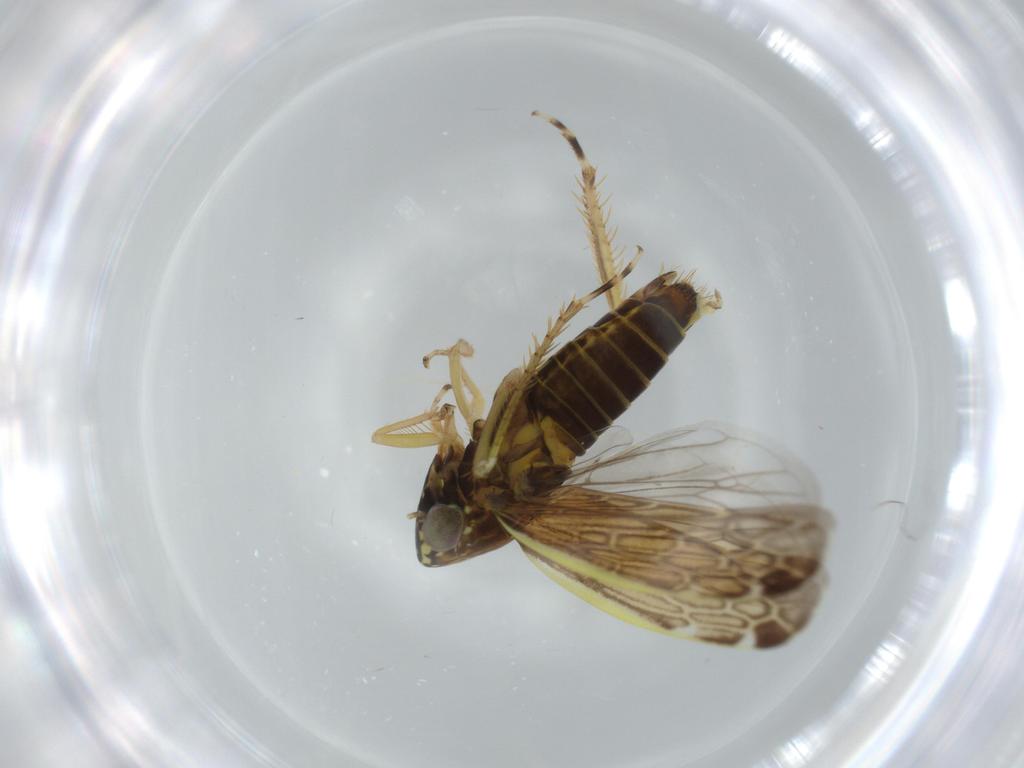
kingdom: Animalia
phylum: Arthropoda
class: Insecta
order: Hemiptera
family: Cicadellidae
